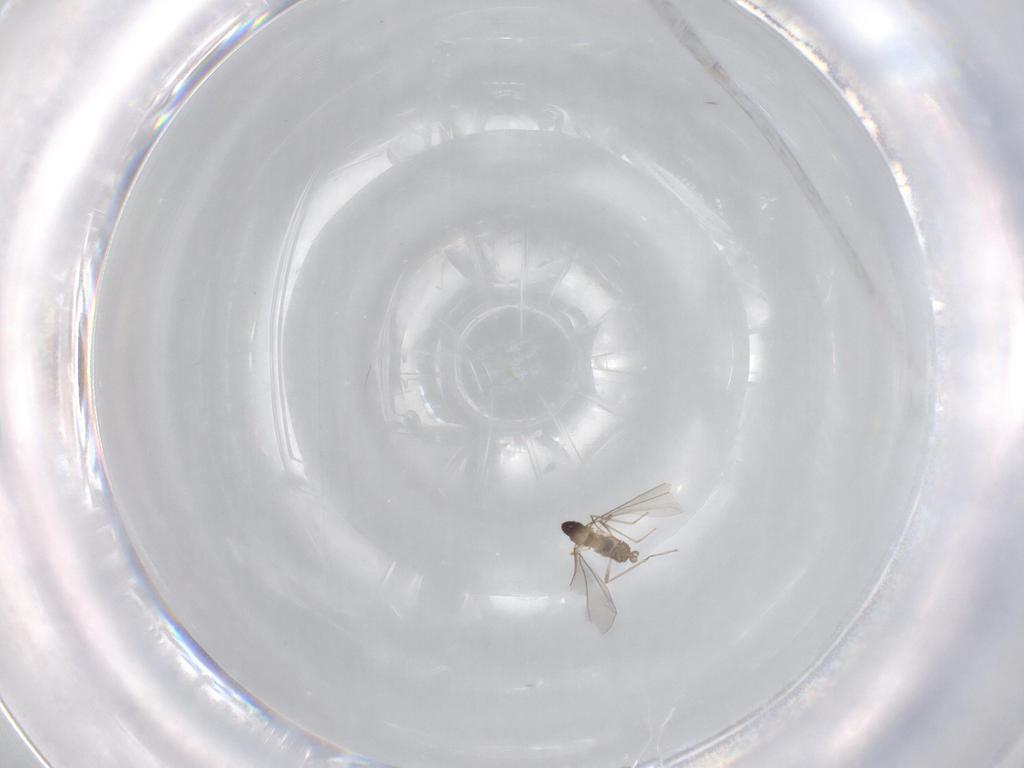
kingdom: Animalia
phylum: Arthropoda
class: Insecta
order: Diptera
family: Cecidomyiidae
